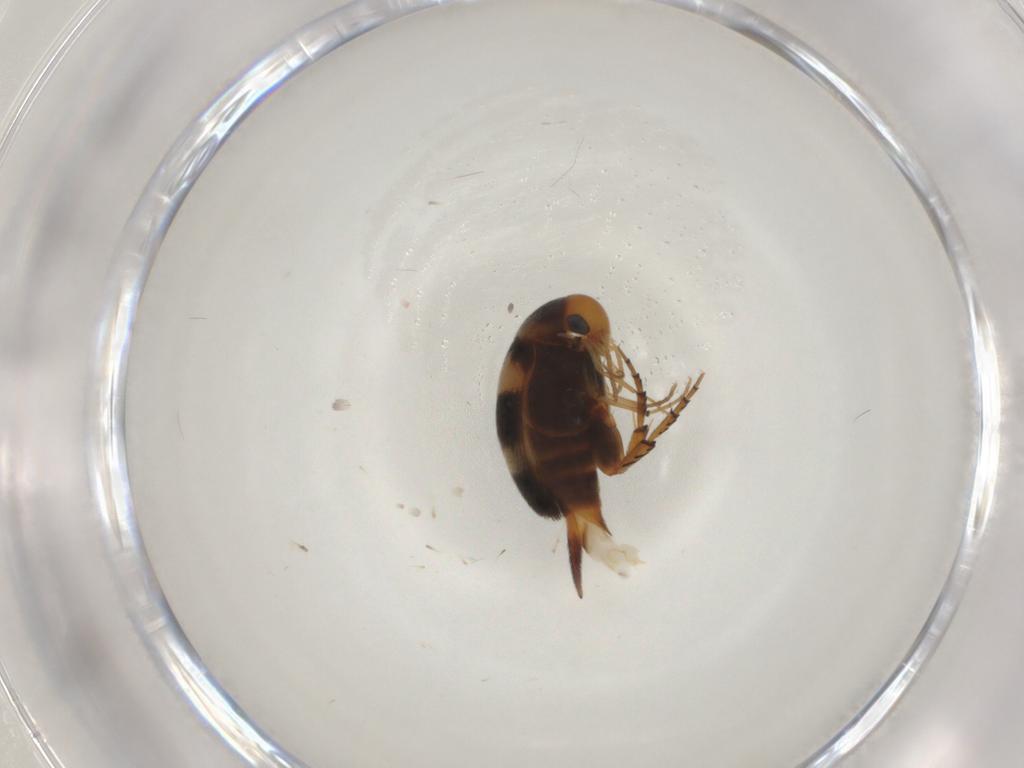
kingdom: Animalia
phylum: Arthropoda
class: Insecta
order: Coleoptera
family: Mordellidae
